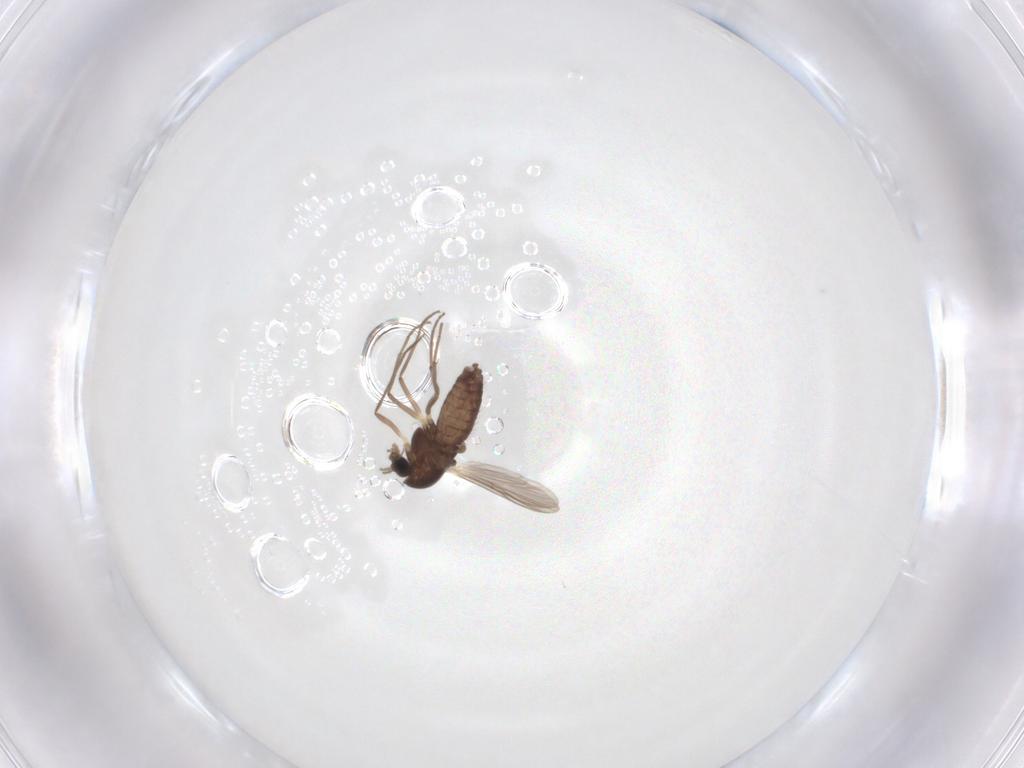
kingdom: Animalia
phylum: Arthropoda
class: Insecta
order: Diptera
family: Chironomidae
